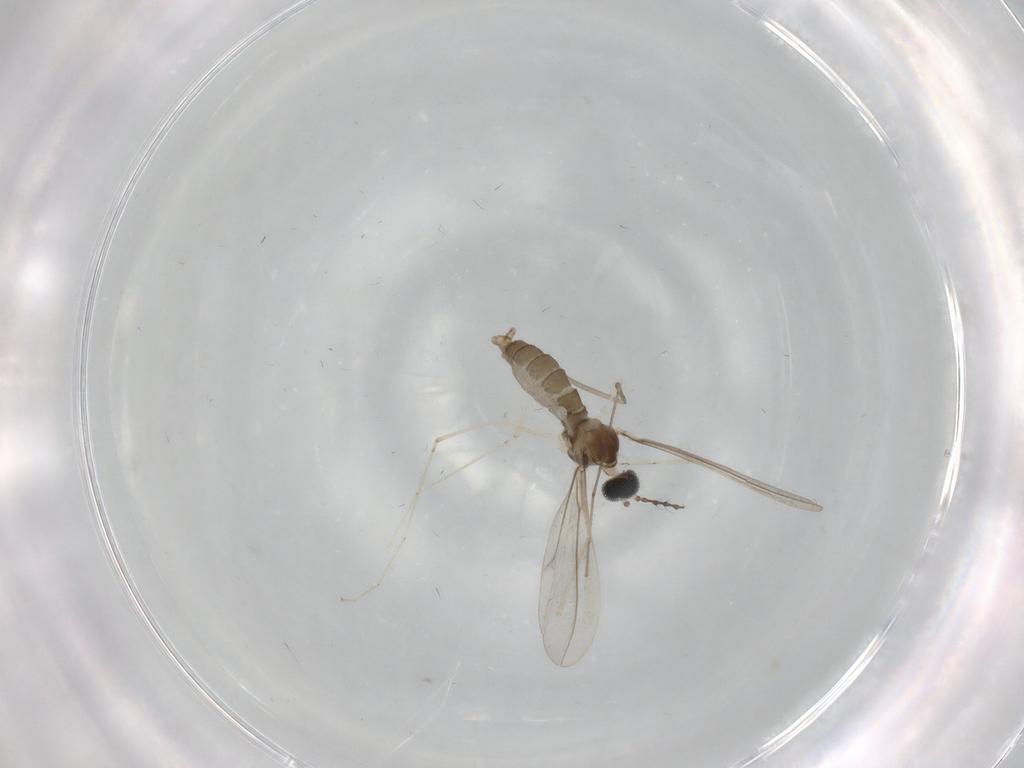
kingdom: Animalia
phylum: Arthropoda
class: Insecta
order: Diptera
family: Cecidomyiidae
